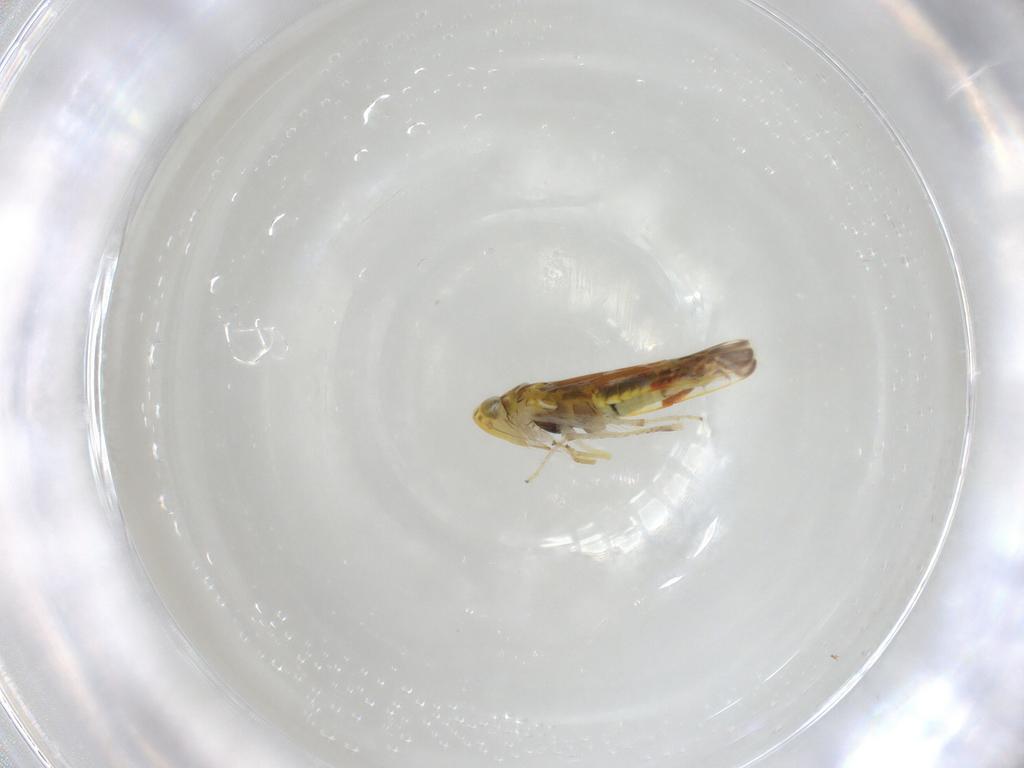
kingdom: Animalia
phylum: Arthropoda
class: Insecta
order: Hemiptera
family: Cicadellidae
